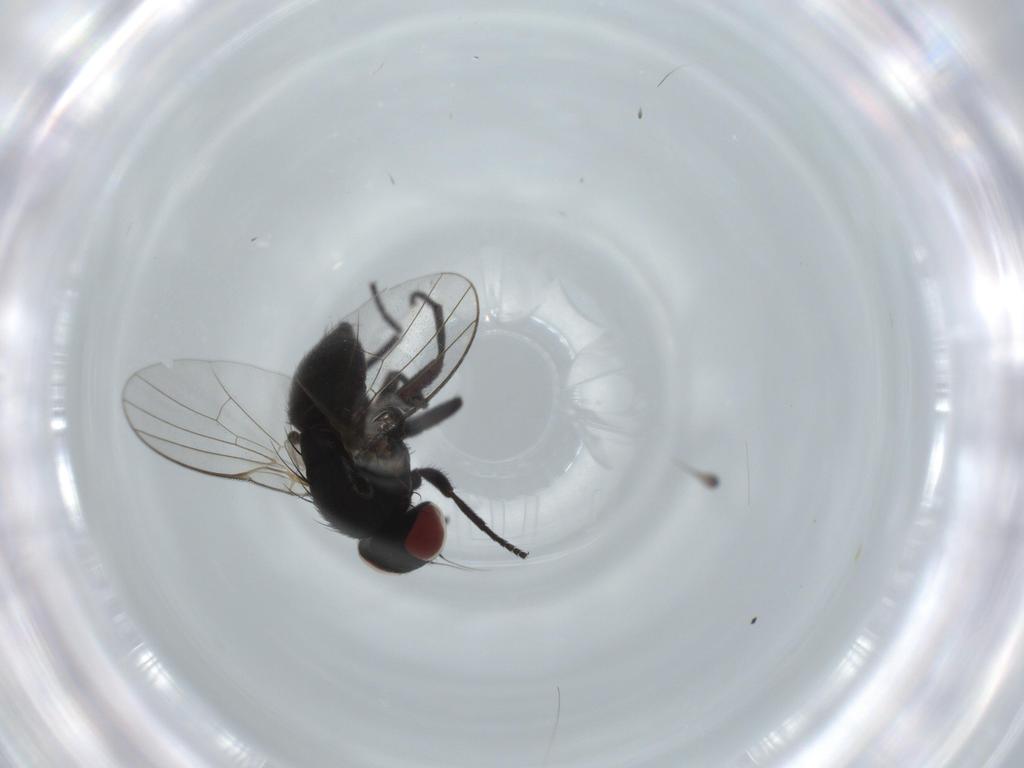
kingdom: Animalia
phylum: Arthropoda
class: Insecta
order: Diptera
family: Agromyzidae
